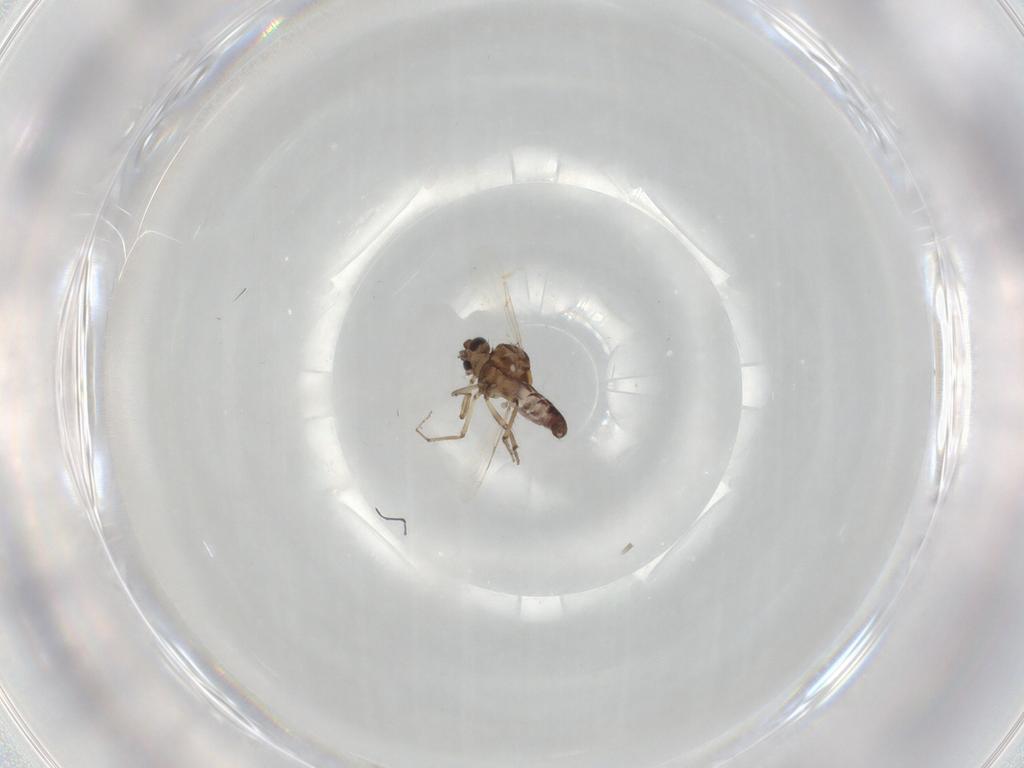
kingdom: Animalia
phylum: Arthropoda
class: Insecta
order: Diptera
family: Ceratopogonidae
